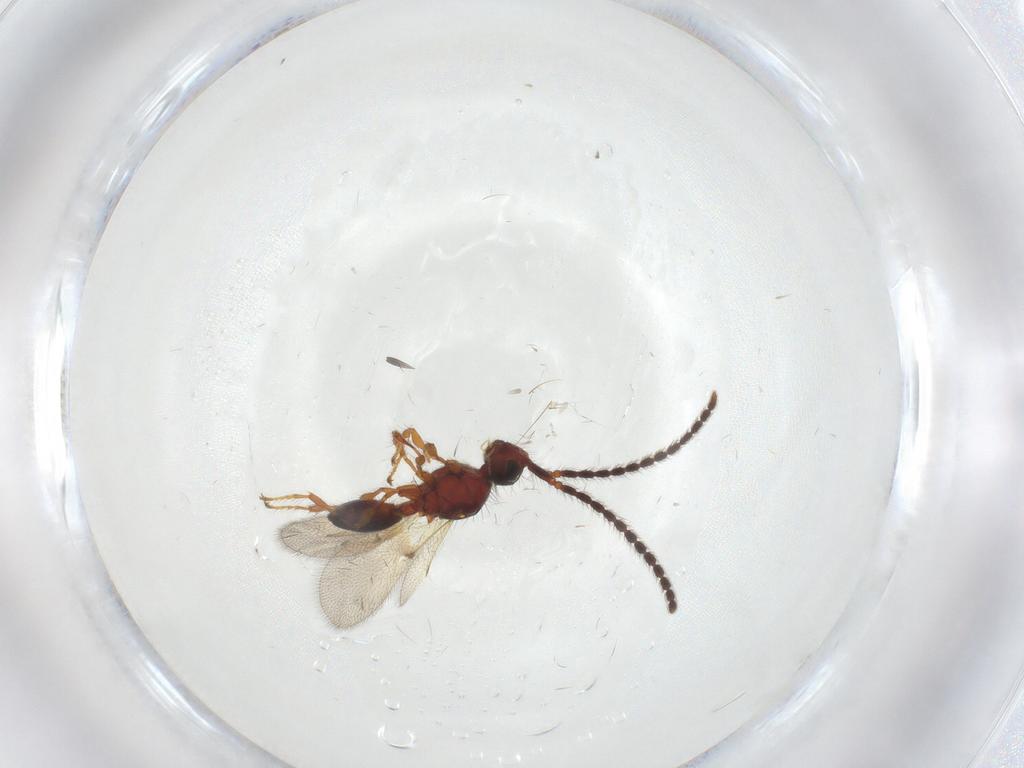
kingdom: Animalia
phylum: Arthropoda
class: Insecta
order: Hymenoptera
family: Diapriidae
